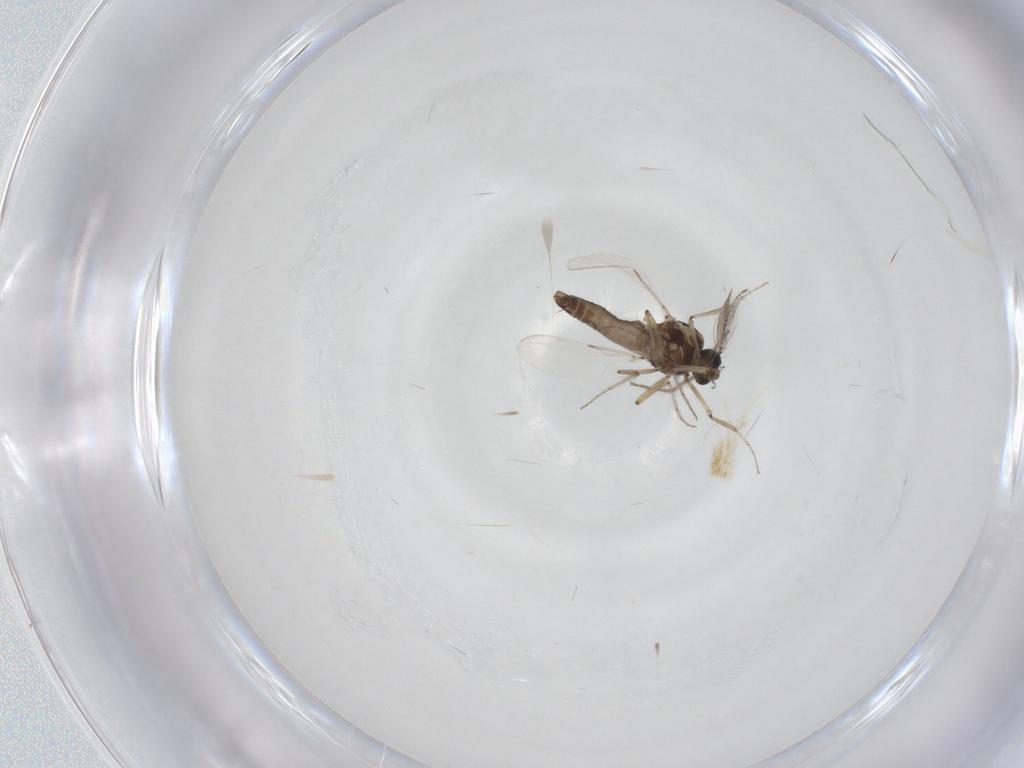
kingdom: Animalia
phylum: Arthropoda
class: Insecta
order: Diptera
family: Ceratopogonidae
